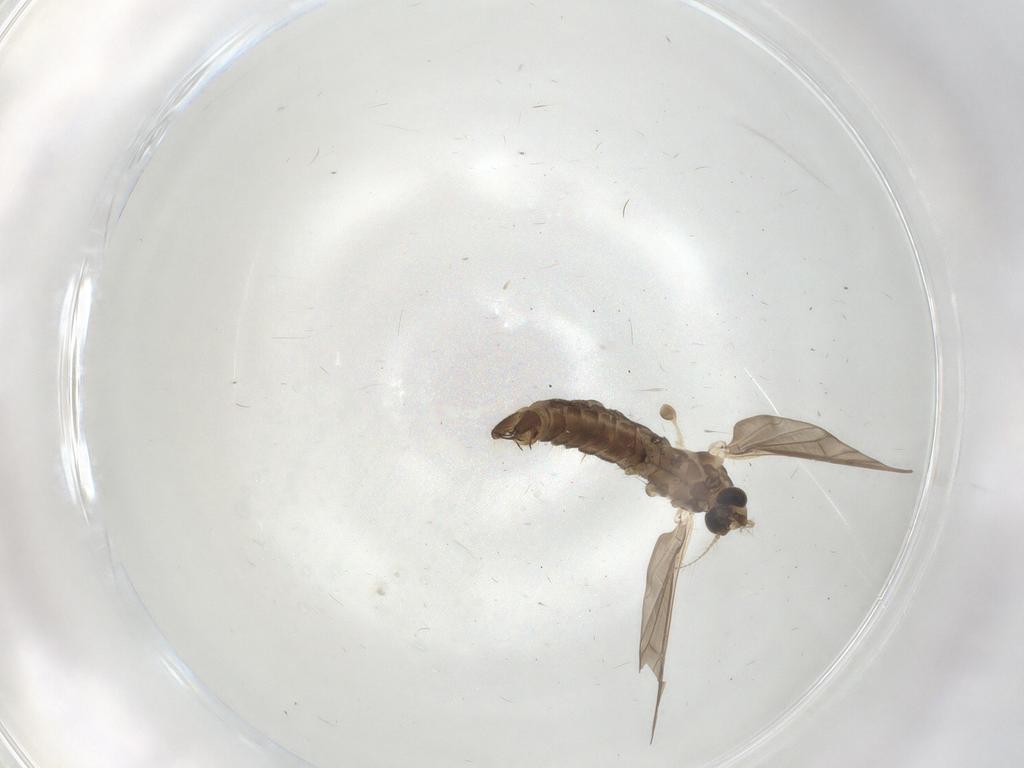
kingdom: Animalia
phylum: Arthropoda
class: Insecta
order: Diptera
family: Limoniidae
